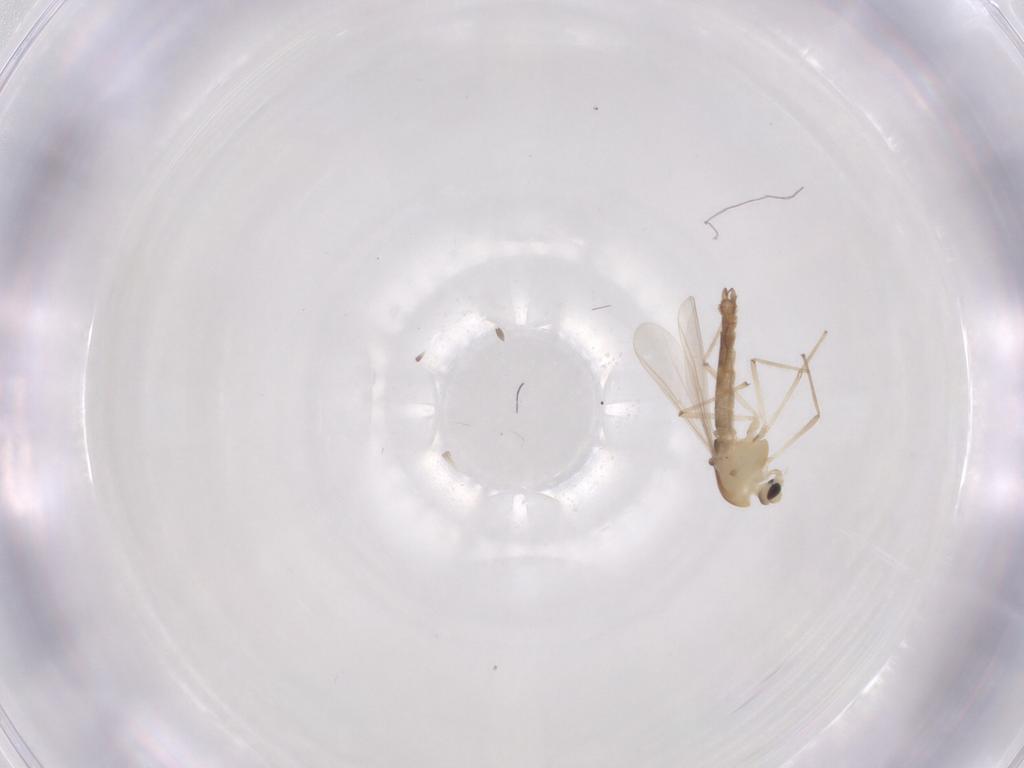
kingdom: Animalia
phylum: Arthropoda
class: Insecta
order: Diptera
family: Chironomidae
